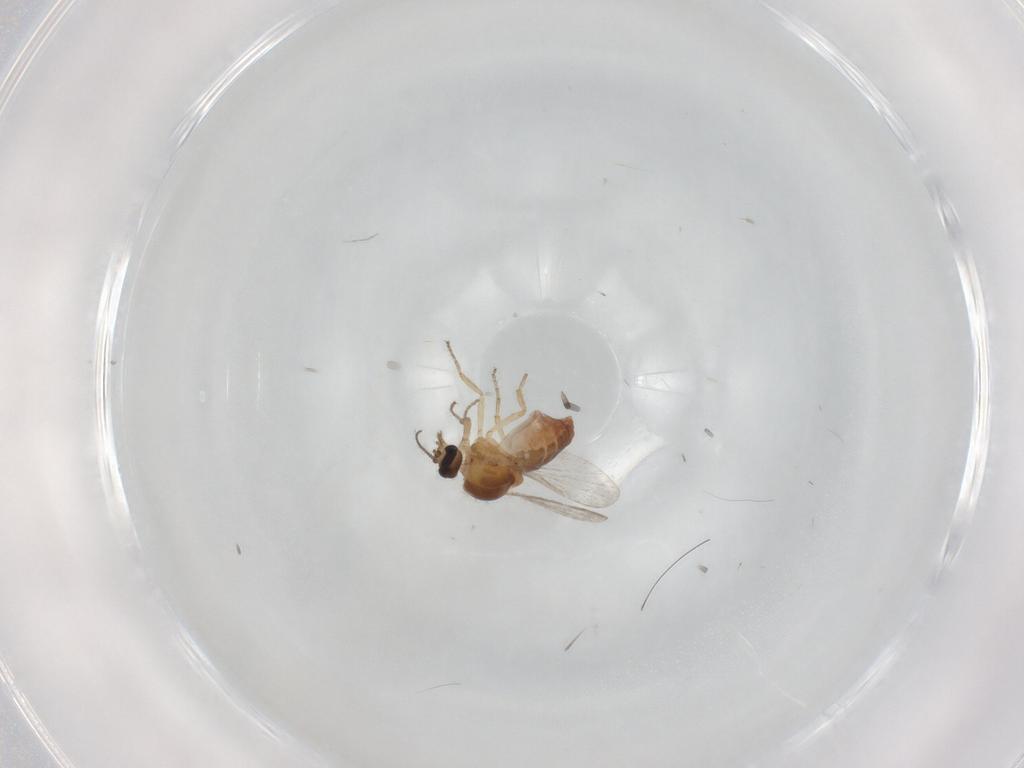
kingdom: Animalia
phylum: Arthropoda
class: Insecta
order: Diptera
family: Ceratopogonidae
